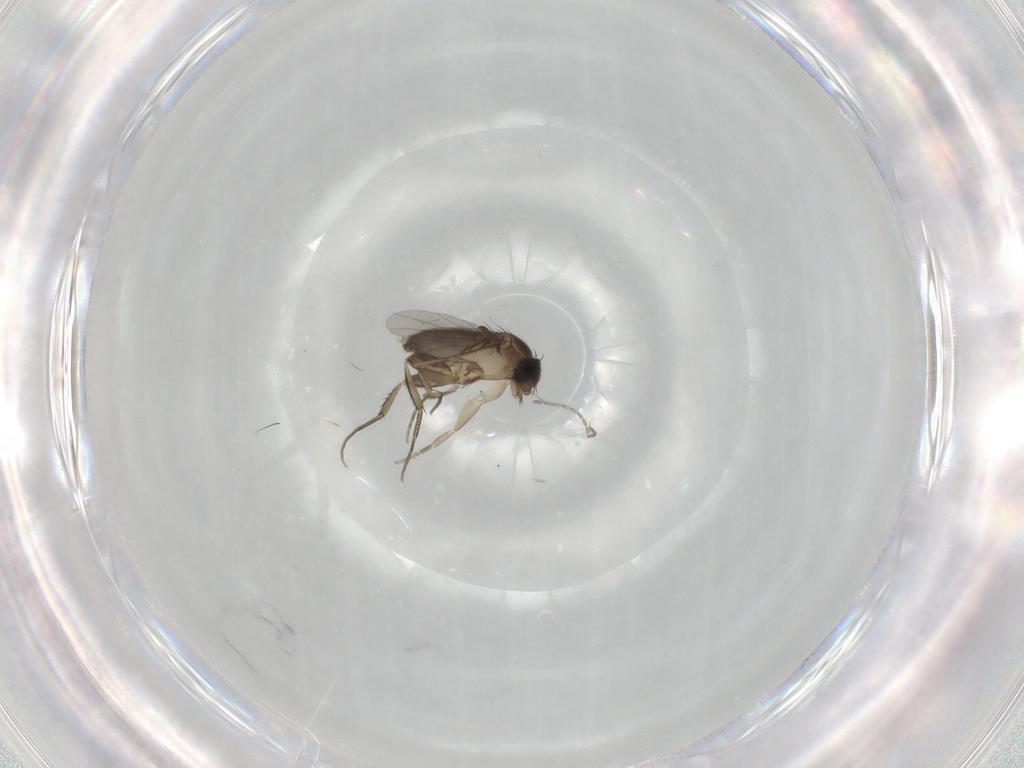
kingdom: Animalia
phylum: Arthropoda
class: Insecta
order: Diptera
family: Phoridae
